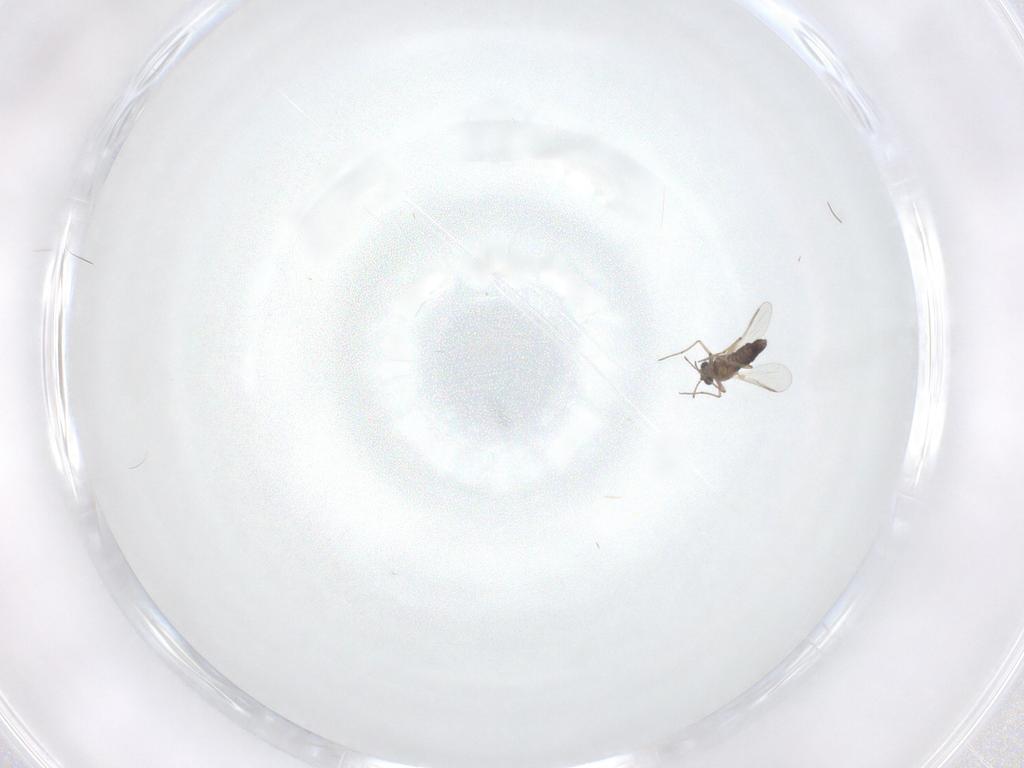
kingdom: Animalia
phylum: Arthropoda
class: Insecta
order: Diptera
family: Chironomidae
